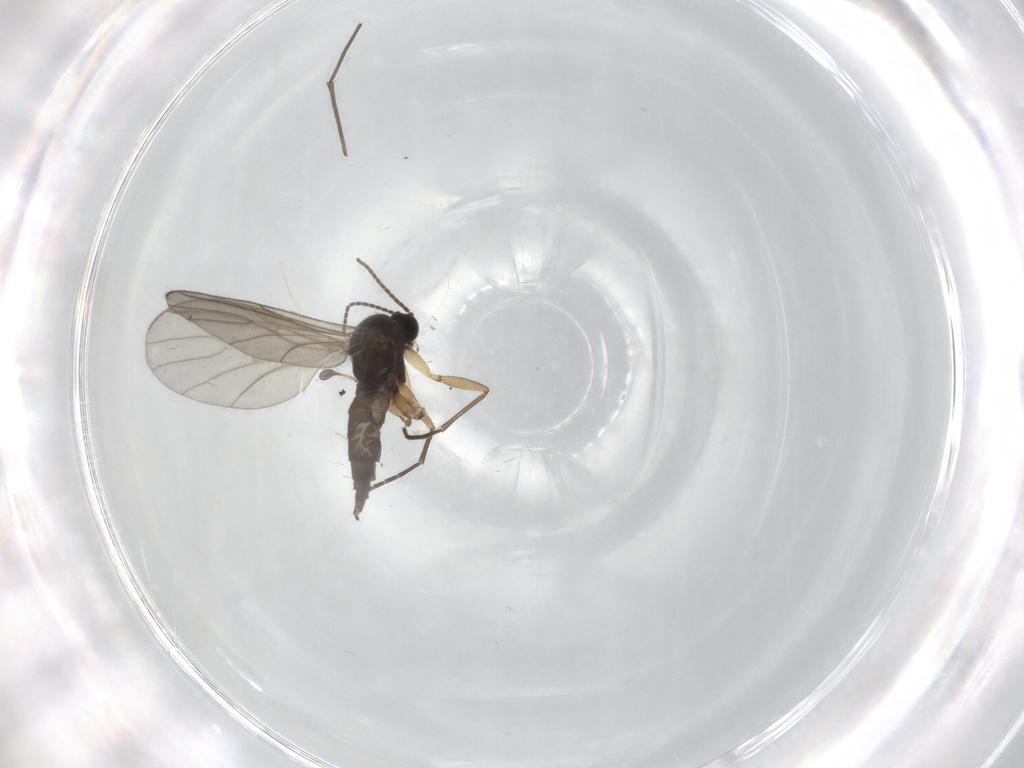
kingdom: Animalia
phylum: Arthropoda
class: Insecta
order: Diptera
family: Sciaridae
